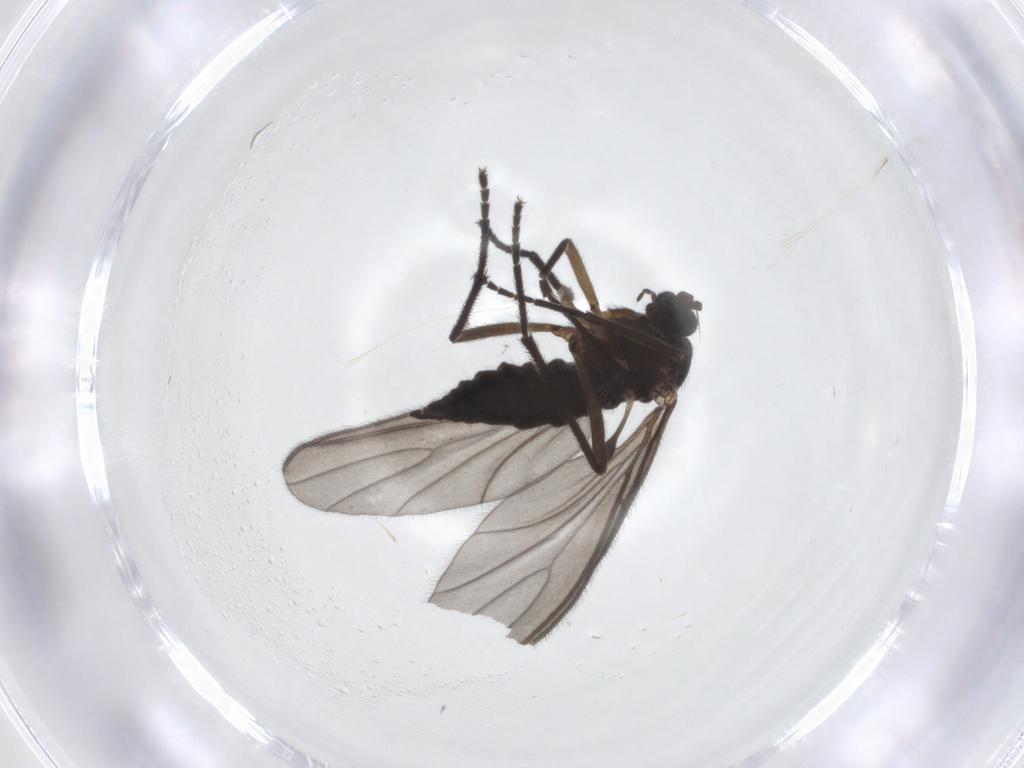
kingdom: Animalia
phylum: Arthropoda
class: Insecta
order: Diptera
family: Sciaridae
